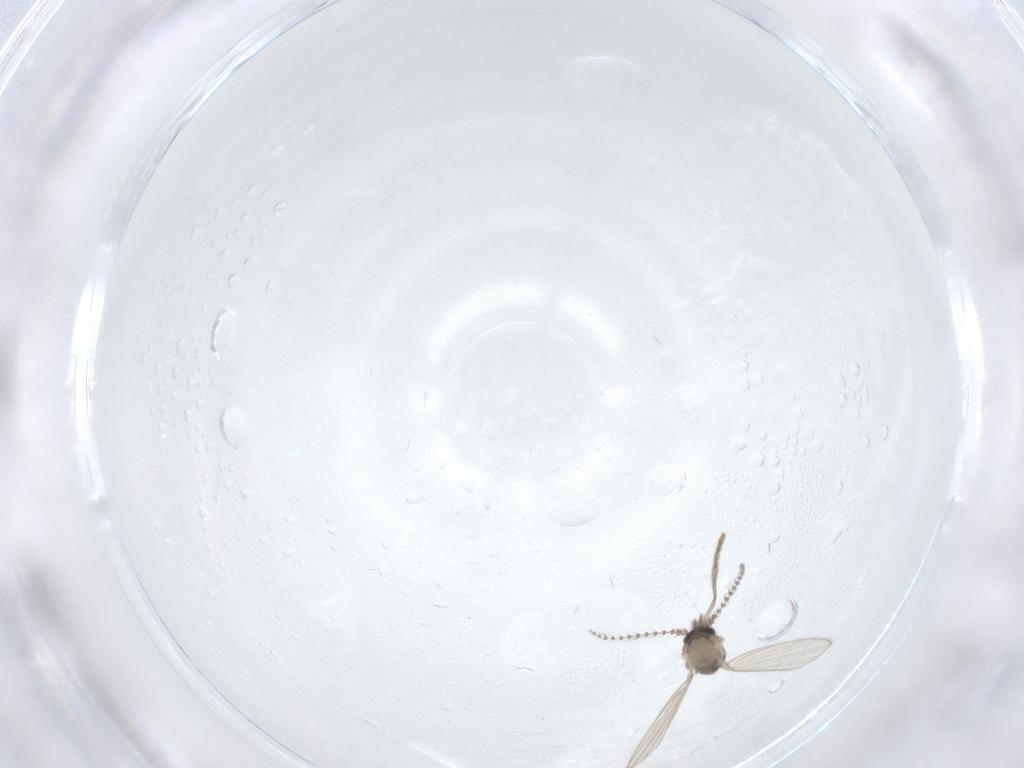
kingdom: Animalia
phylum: Arthropoda
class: Insecta
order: Diptera
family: Psychodidae
